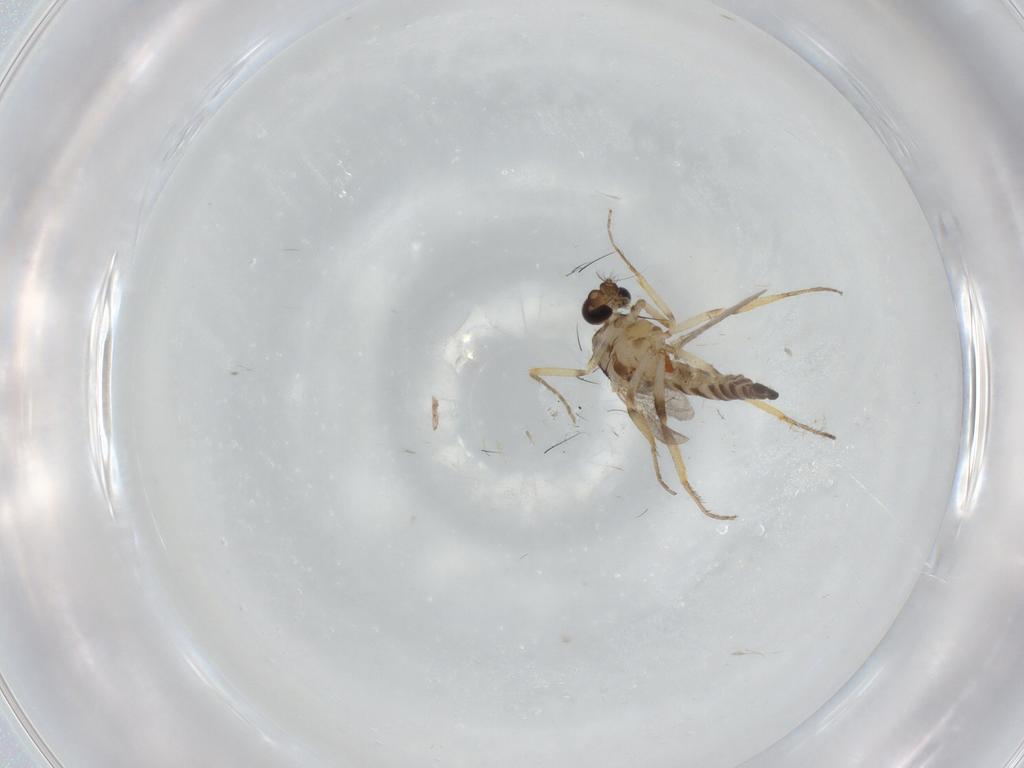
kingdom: Animalia
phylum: Arthropoda
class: Insecta
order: Diptera
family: Ceratopogonidae
